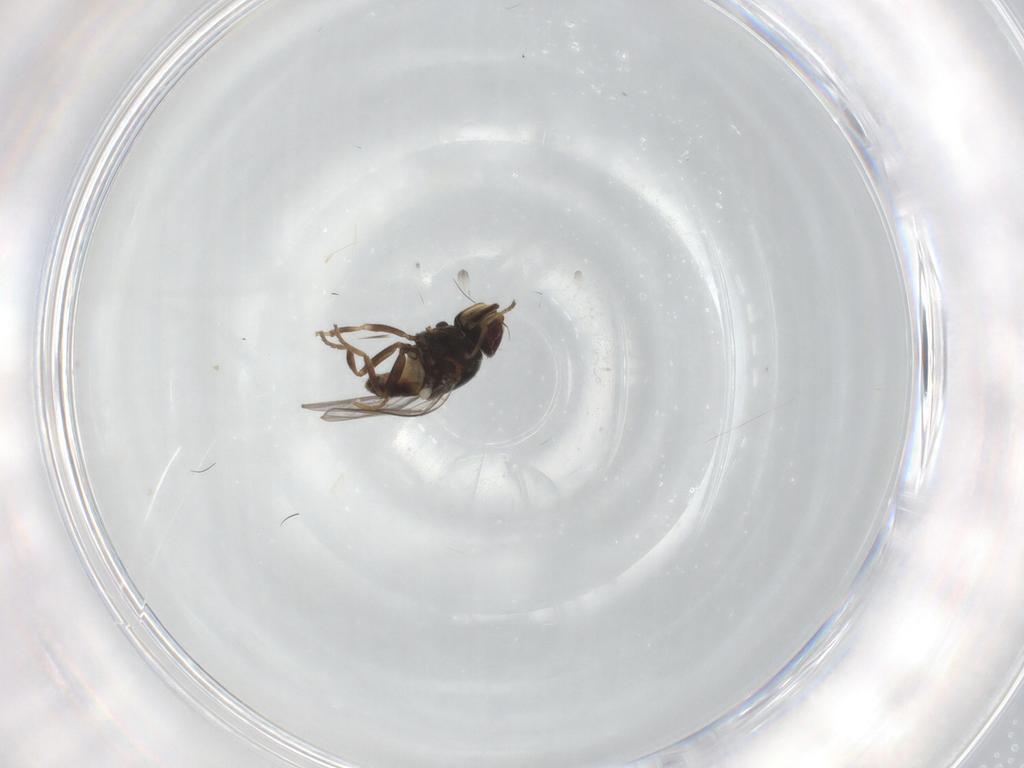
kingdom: Animalia
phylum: Arthropoda
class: Insecta
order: Diptera
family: Chloropidae
